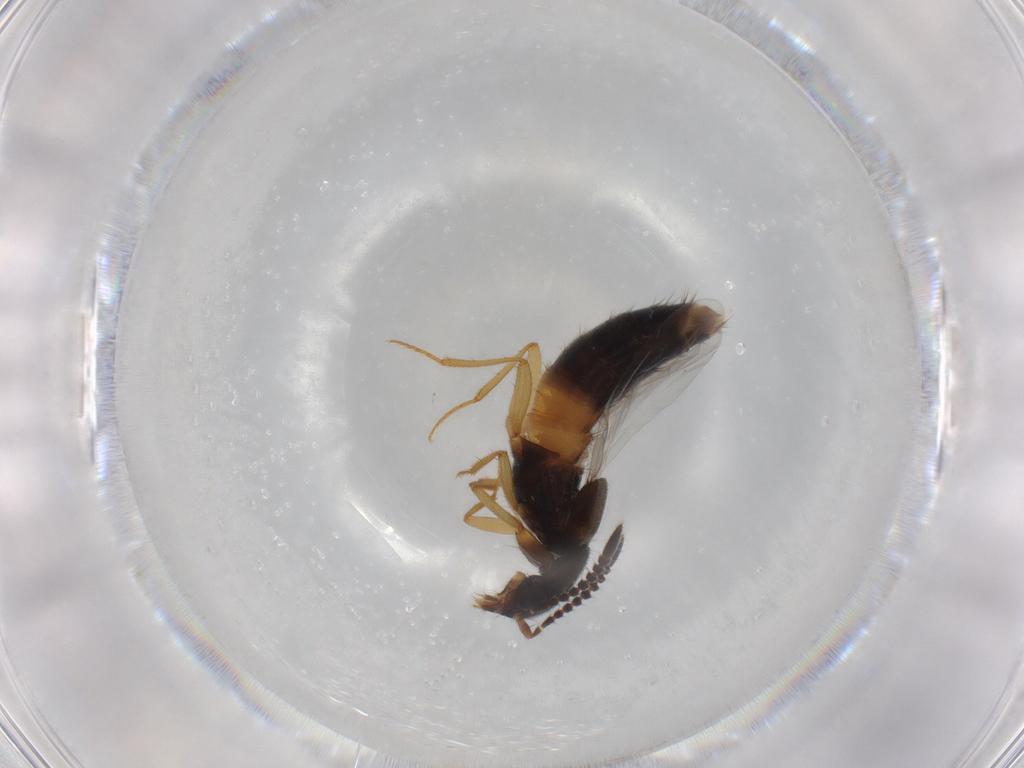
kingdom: Animalia
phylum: Arthropoda
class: Insecta
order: Coleoptera
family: Staphylinidae
